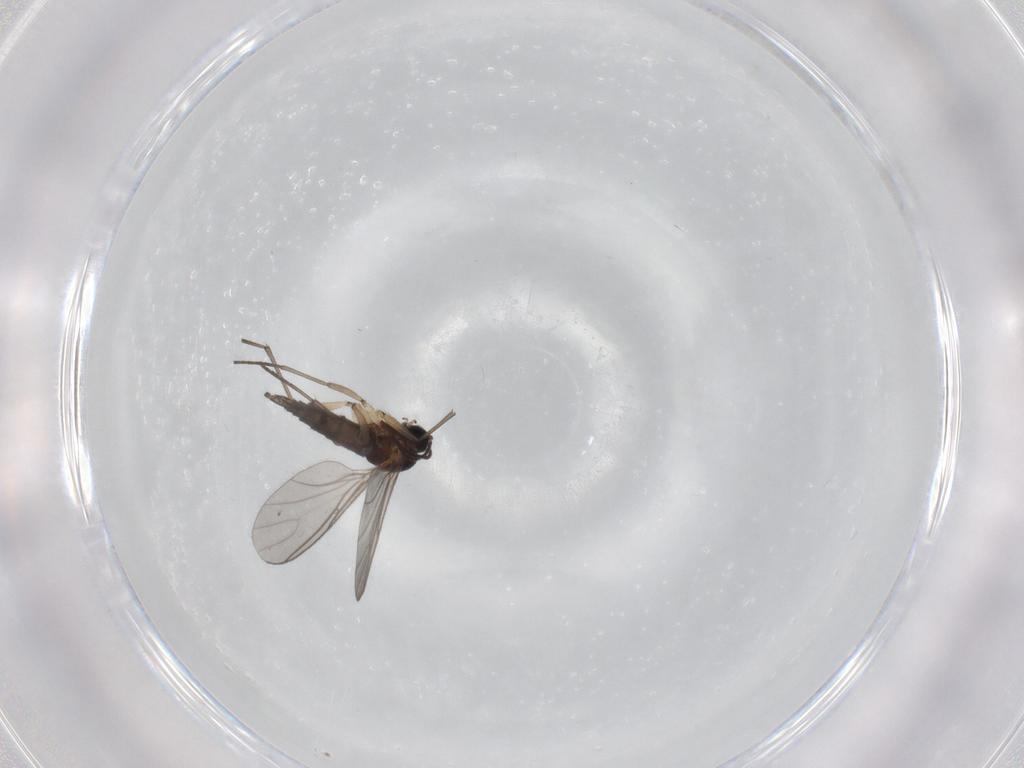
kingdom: Animalia
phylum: Arthropoda
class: Insecta
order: Diptera
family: Sciaridae
